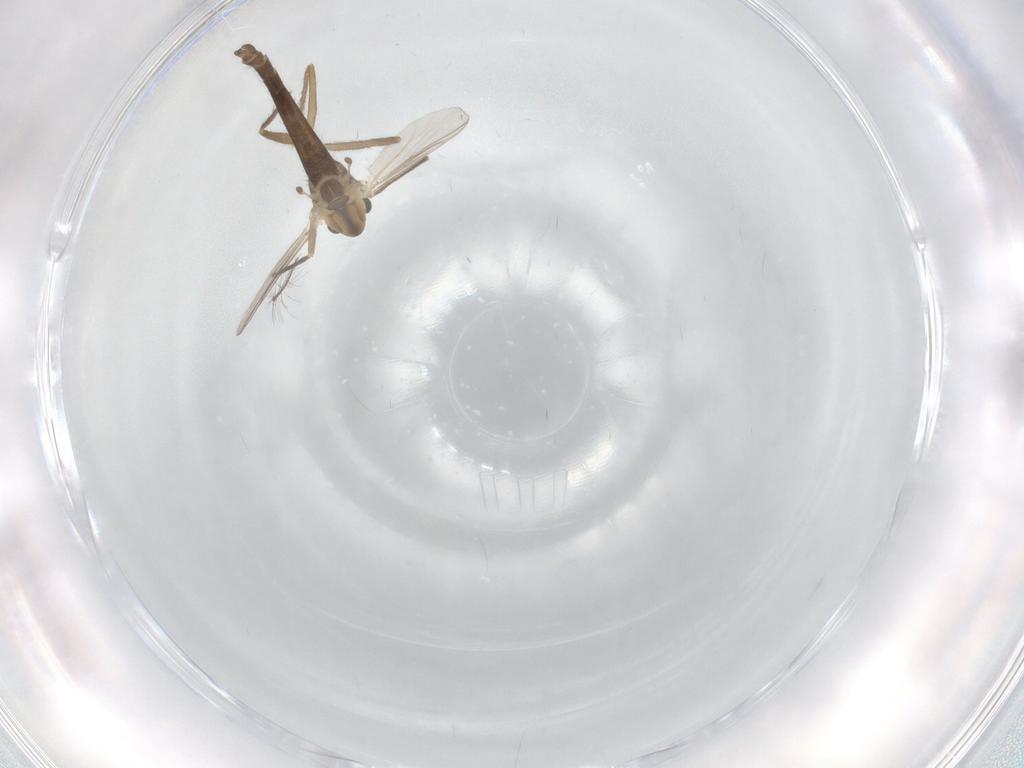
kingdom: Animalia
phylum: Arthropoda
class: Insecta
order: Diptera
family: Chironomidae
